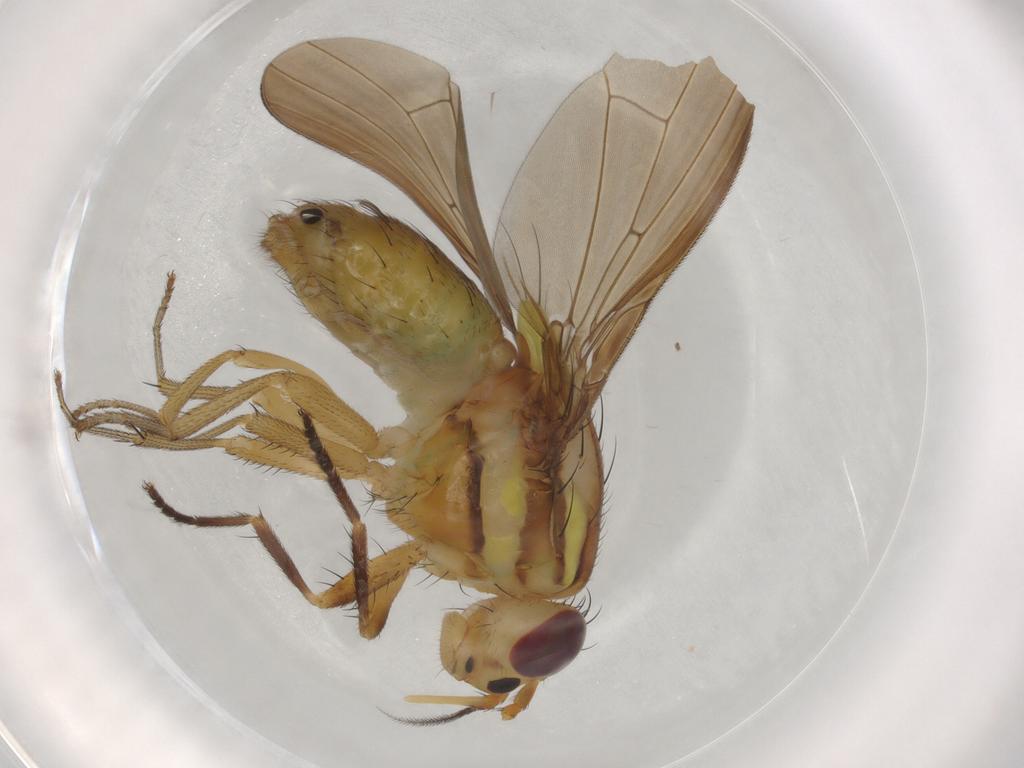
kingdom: Animalia
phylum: Arthropoda
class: Insecta
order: Diptera
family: Lauxaniidae
